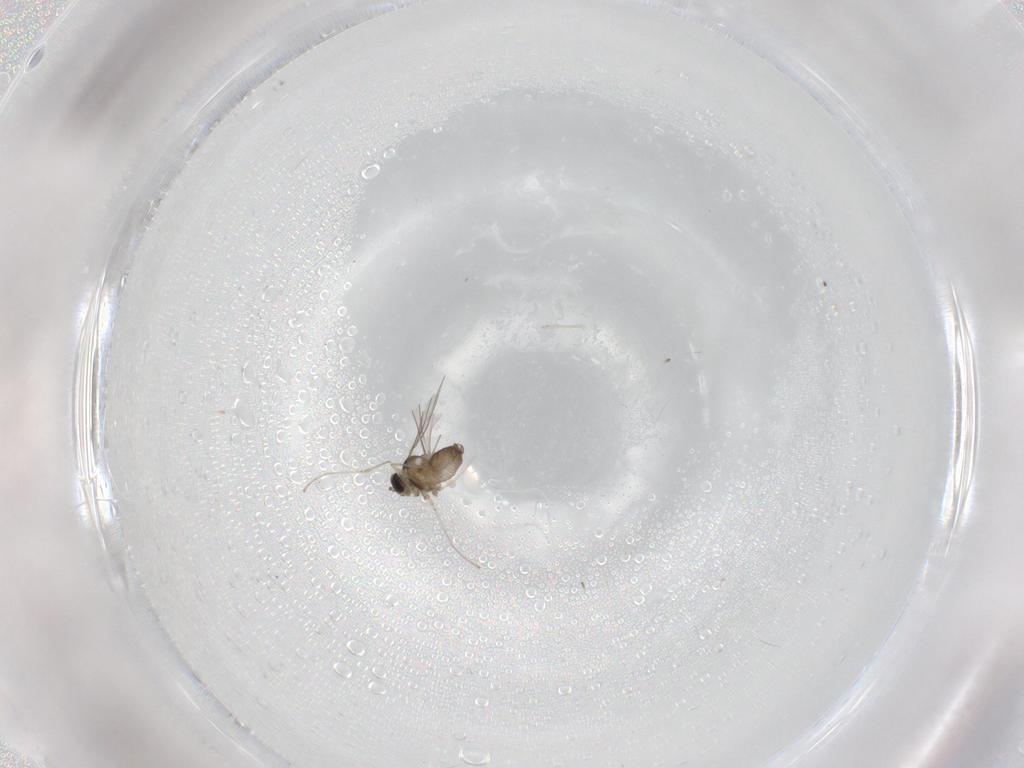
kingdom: Animalia
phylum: Arthropoda
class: Insecta
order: Diptera
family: Cecidomyiidae
